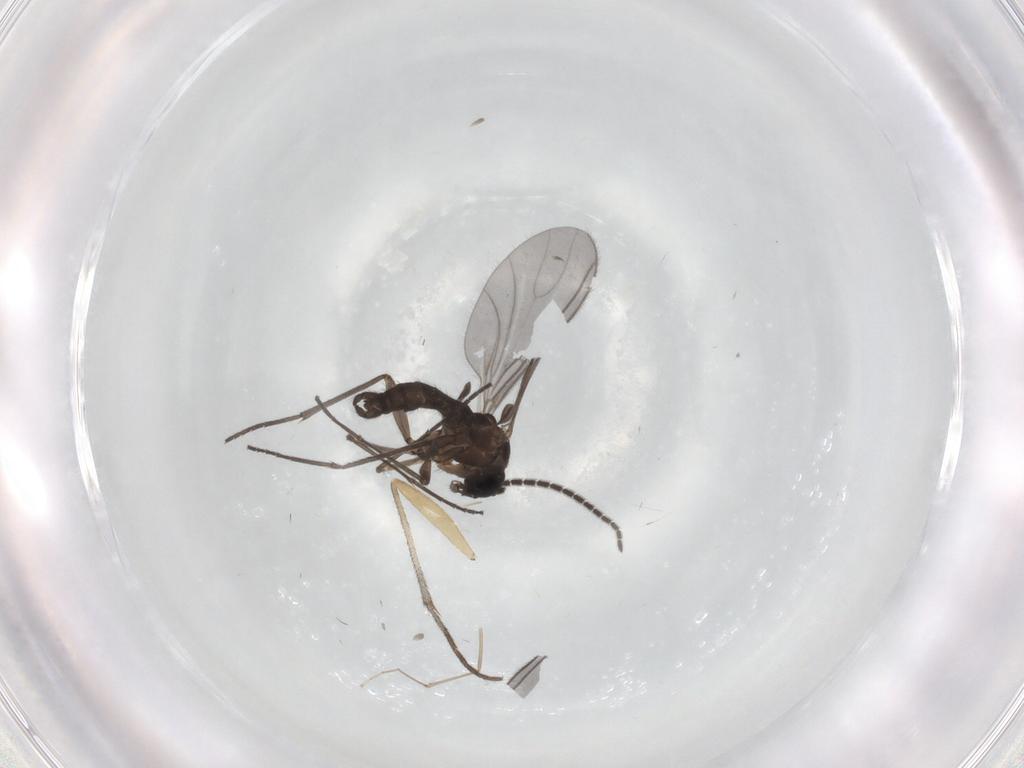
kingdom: Animalia
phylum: Arthropoda
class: Insecta
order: Diptera
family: Sciaridae
